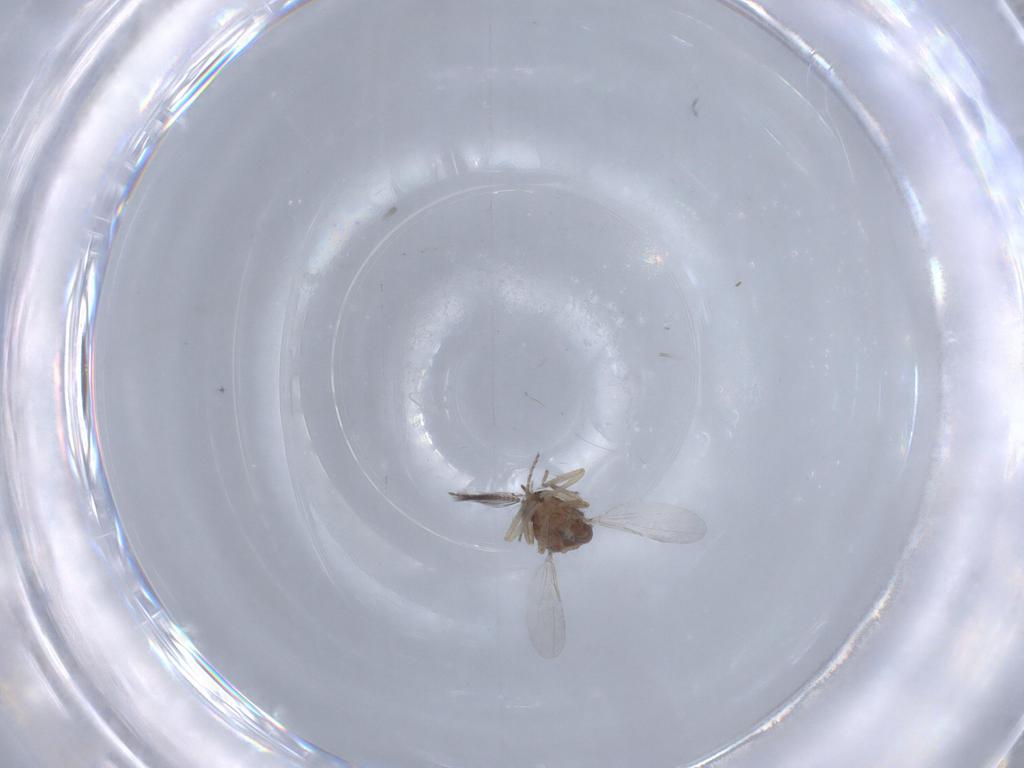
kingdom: Animalia
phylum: Arthropoda
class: Insecta
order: Diptera
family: Ceratopogonidae
